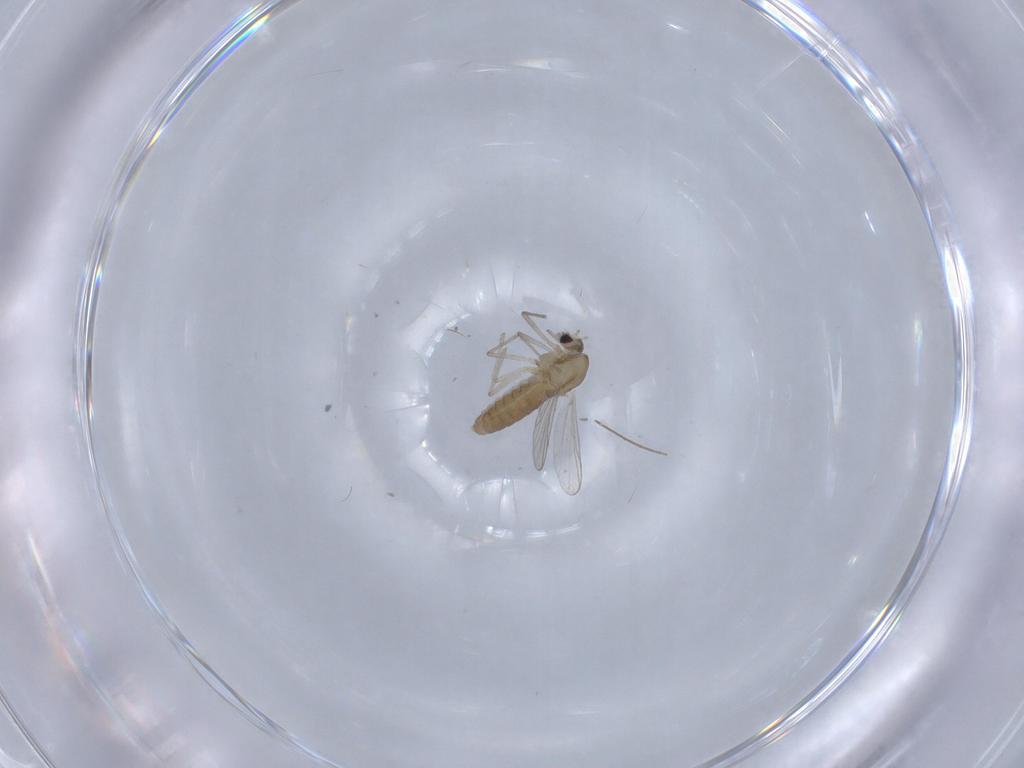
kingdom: Animalia
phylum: Arthropoda
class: Insecta
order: Diptera
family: Chironomidae
